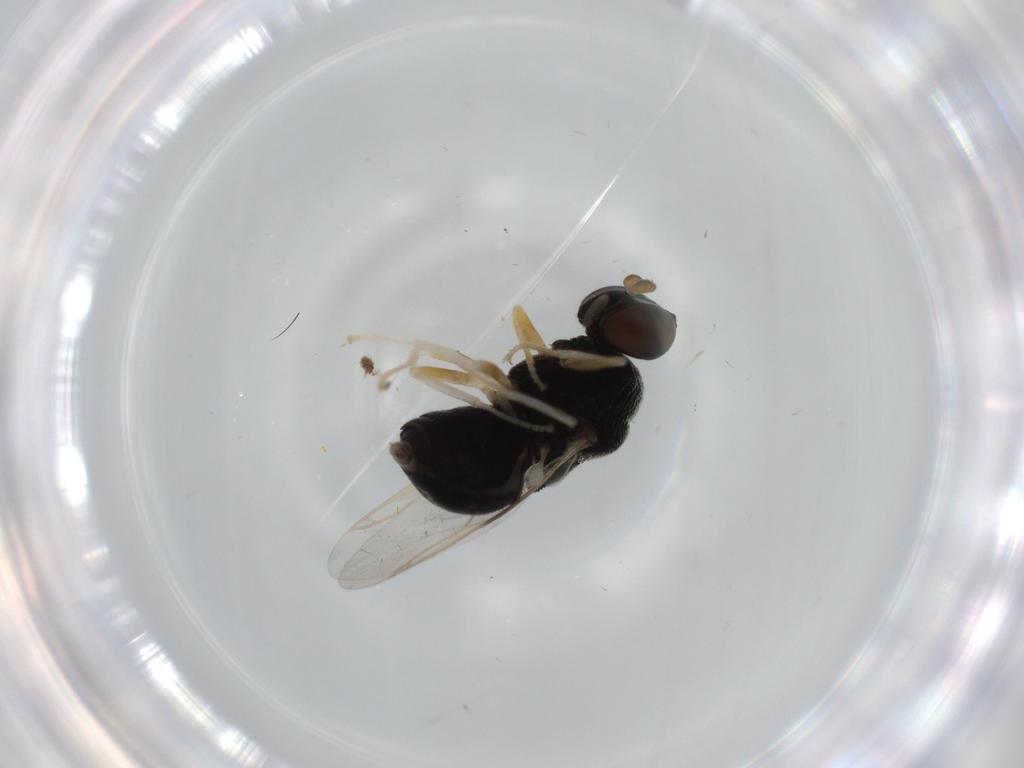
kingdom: Animalia
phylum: Arthropoda
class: Insecta
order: Diptera
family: Stratiomyidae
